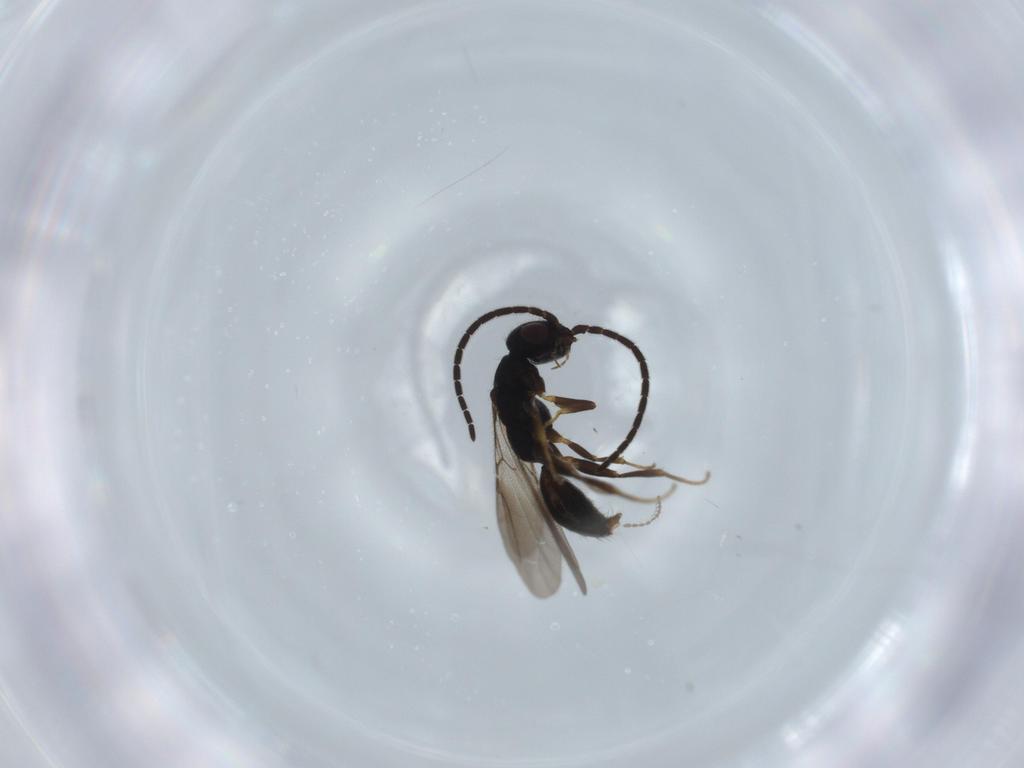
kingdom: Animalia
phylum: Arthropoda
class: Insecta
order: Hymenoptera
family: Bethylidae
